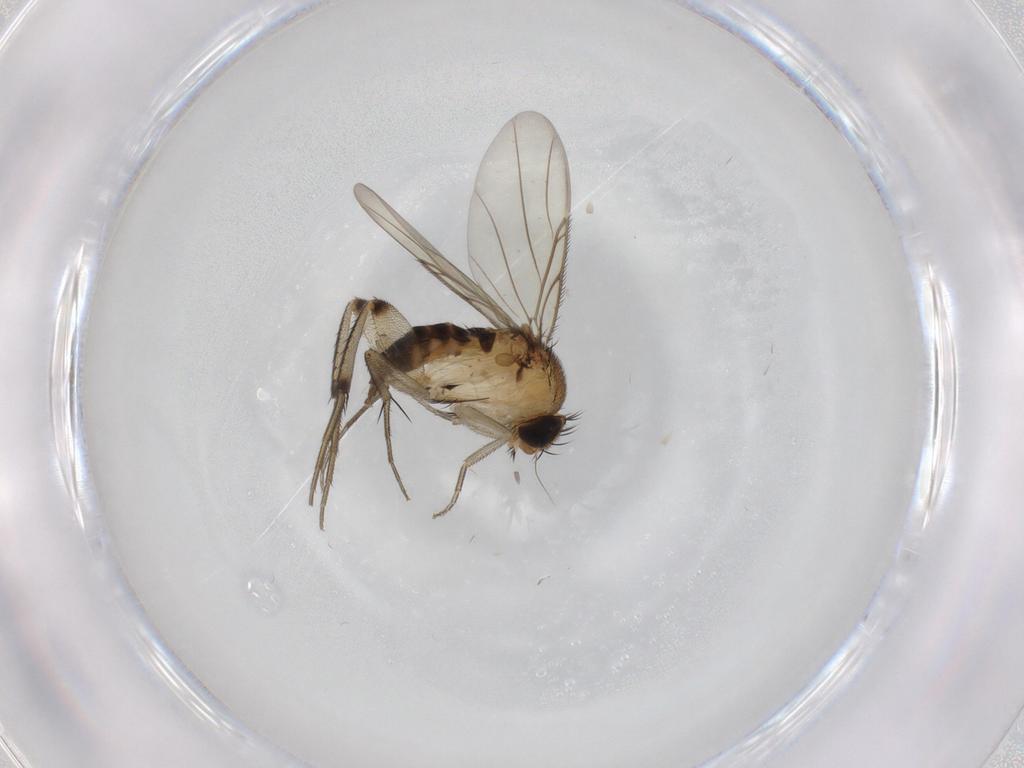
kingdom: Animalia
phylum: Arthropoda
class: Insecta
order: Diptera
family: Phoridae
